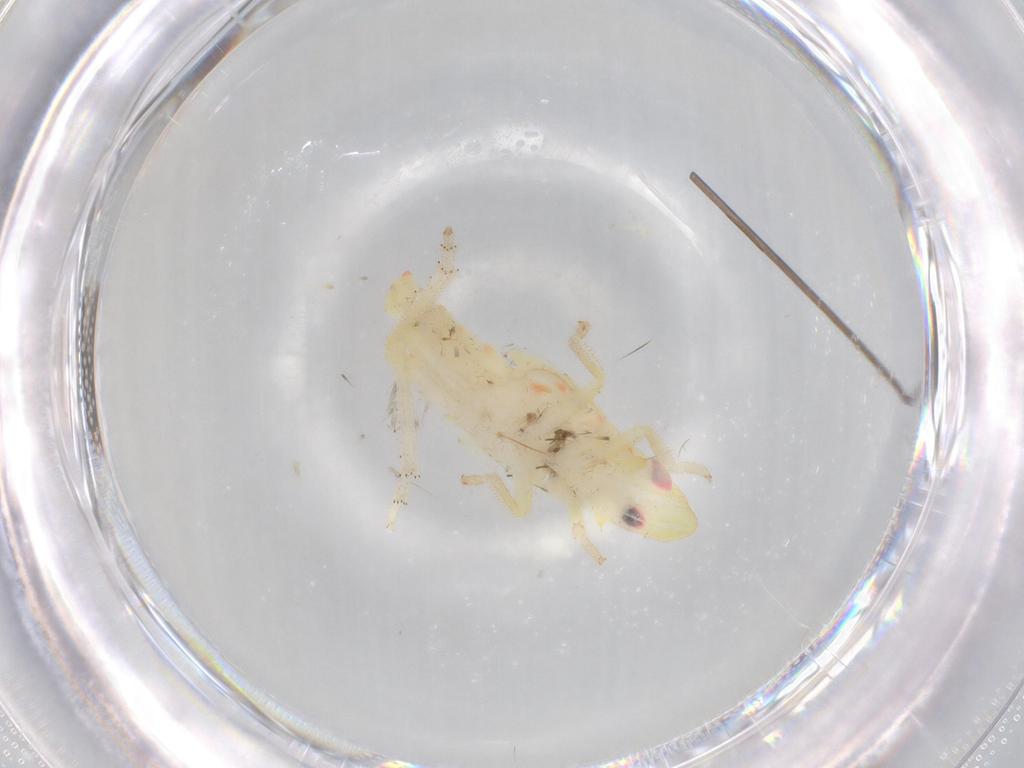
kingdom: Animalia
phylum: Arthropoda
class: Insecta
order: Hemiptera
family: Tropiduchidae
